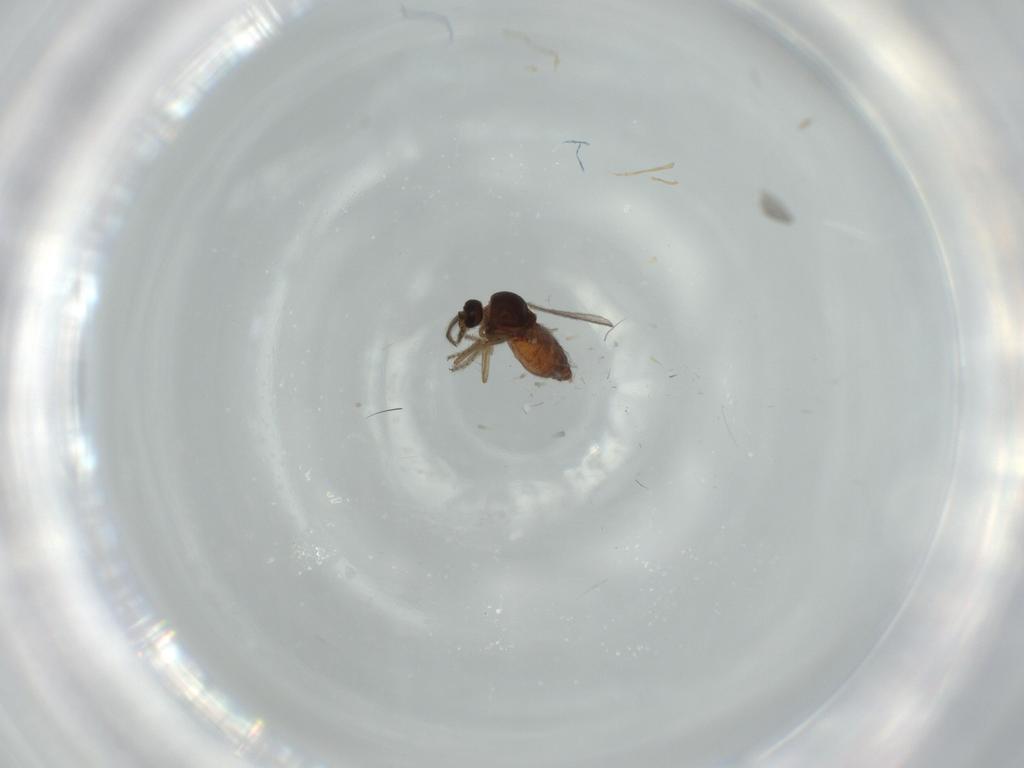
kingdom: Animalia
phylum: Arthropoda
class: Insecta
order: Diptera
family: Ceratopogonidae
